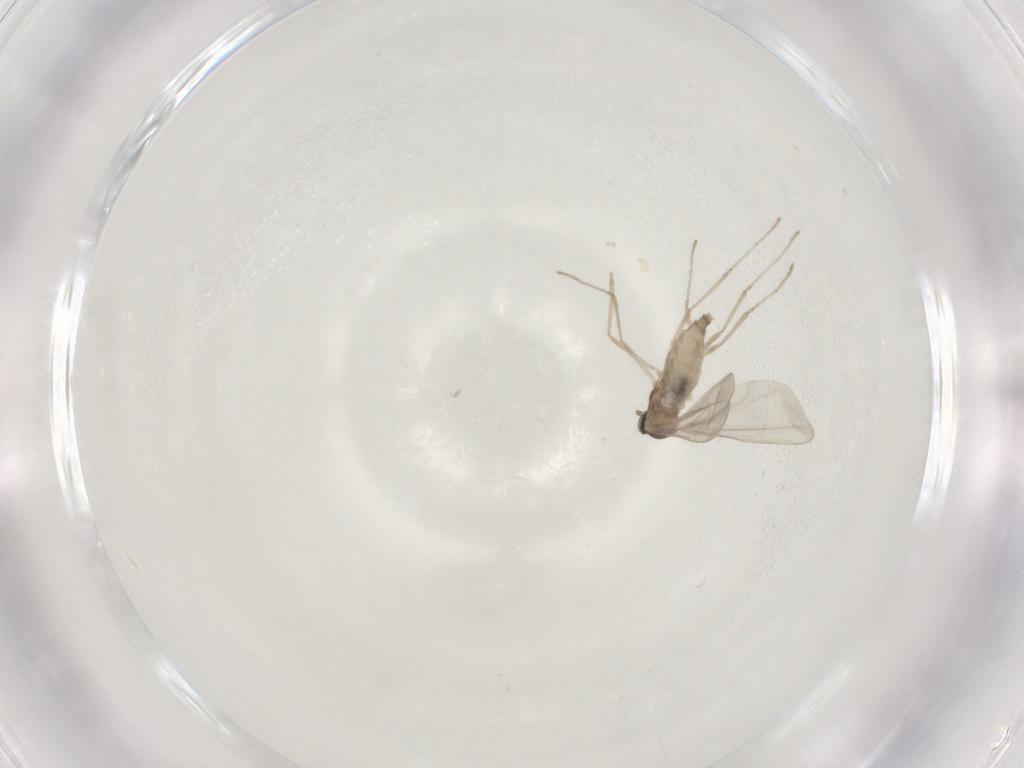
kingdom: Animalia
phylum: Arthropoda
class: Insecta
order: Diptera
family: Cecidomyiidae
